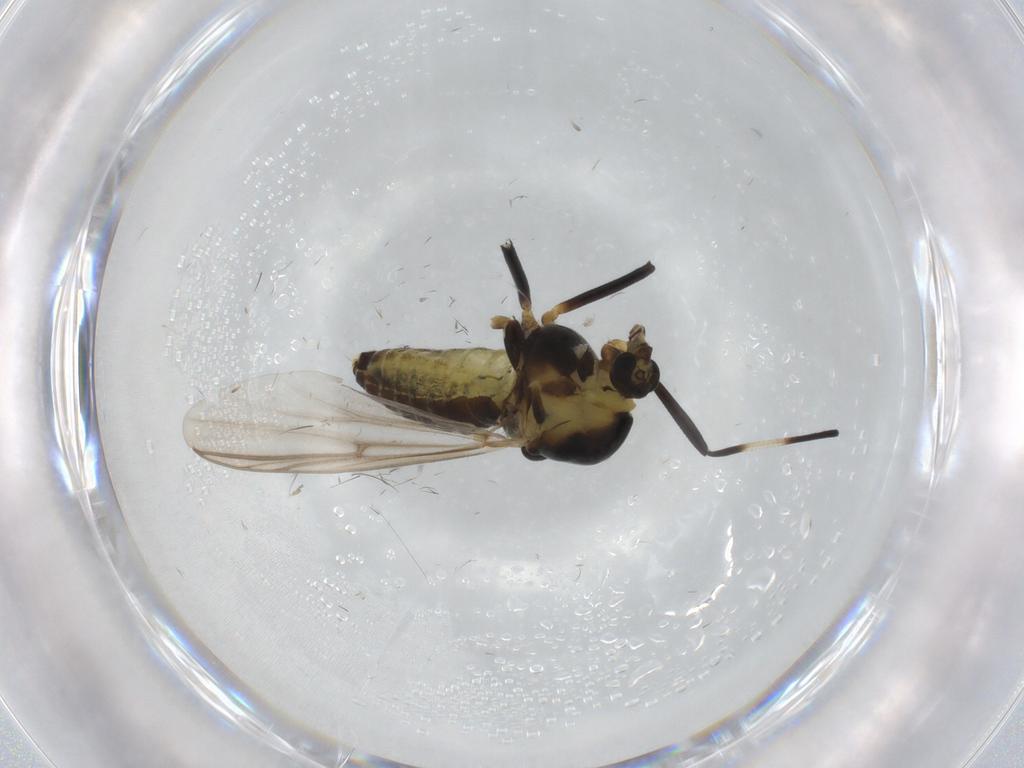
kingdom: Animalia
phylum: Arthropoda
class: Insecta
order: Diptera
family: Muscidae
